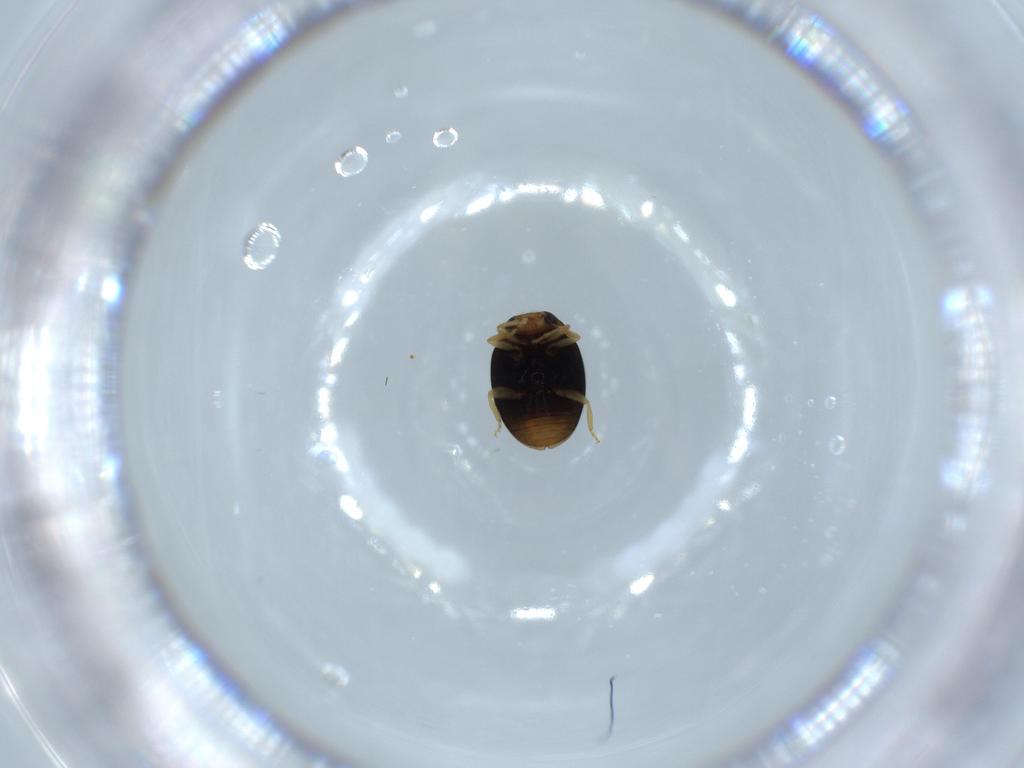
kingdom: Animalia
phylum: Arthropoda
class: Insecta
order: Coleoptera
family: Coccinellidae
